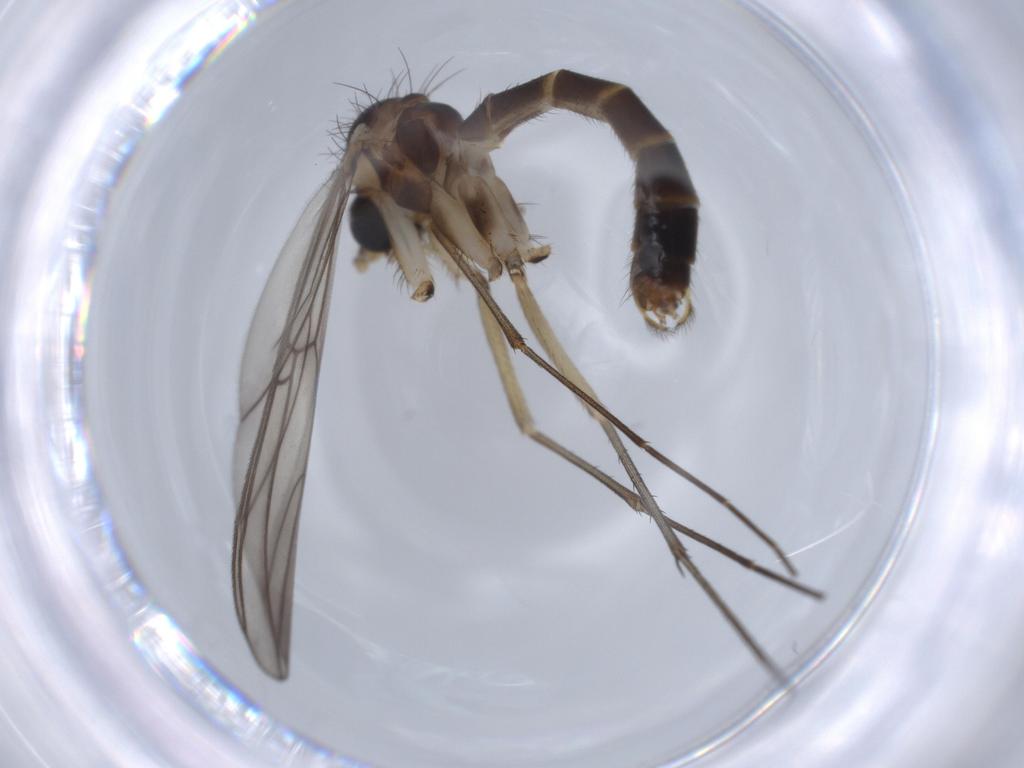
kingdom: Animalia
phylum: Arthropoda
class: Insecta
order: Diptera
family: Mycetophilidae
